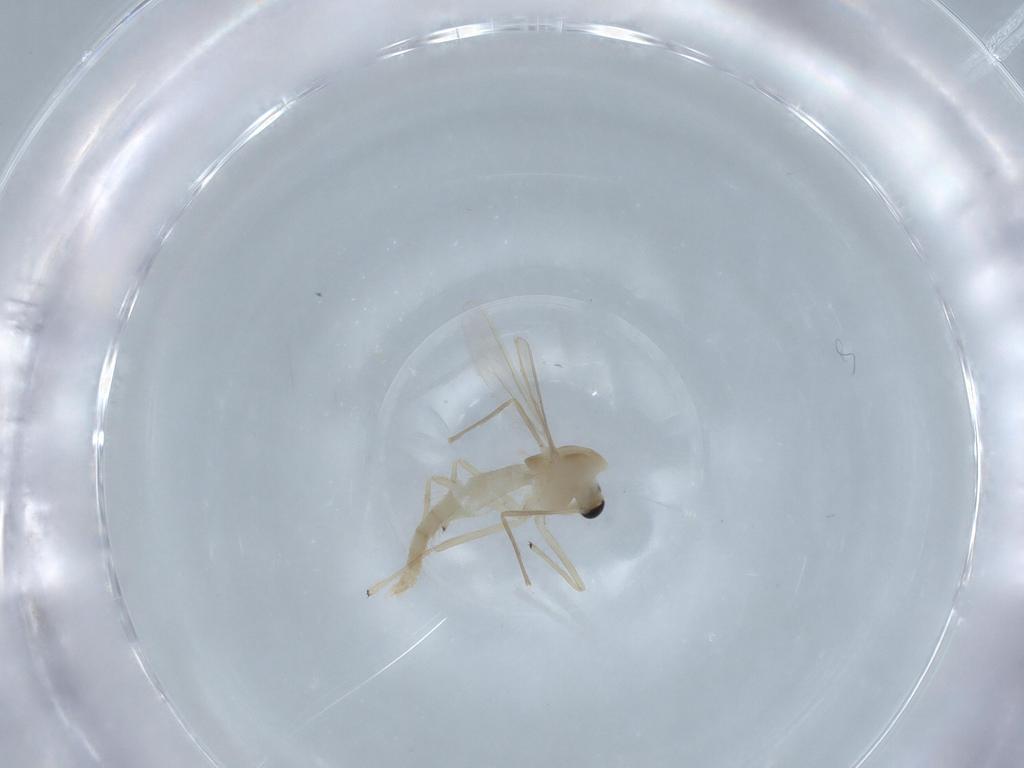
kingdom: Animalia
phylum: Arthropoda
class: Insecta
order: Diptera
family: Chironomidae
